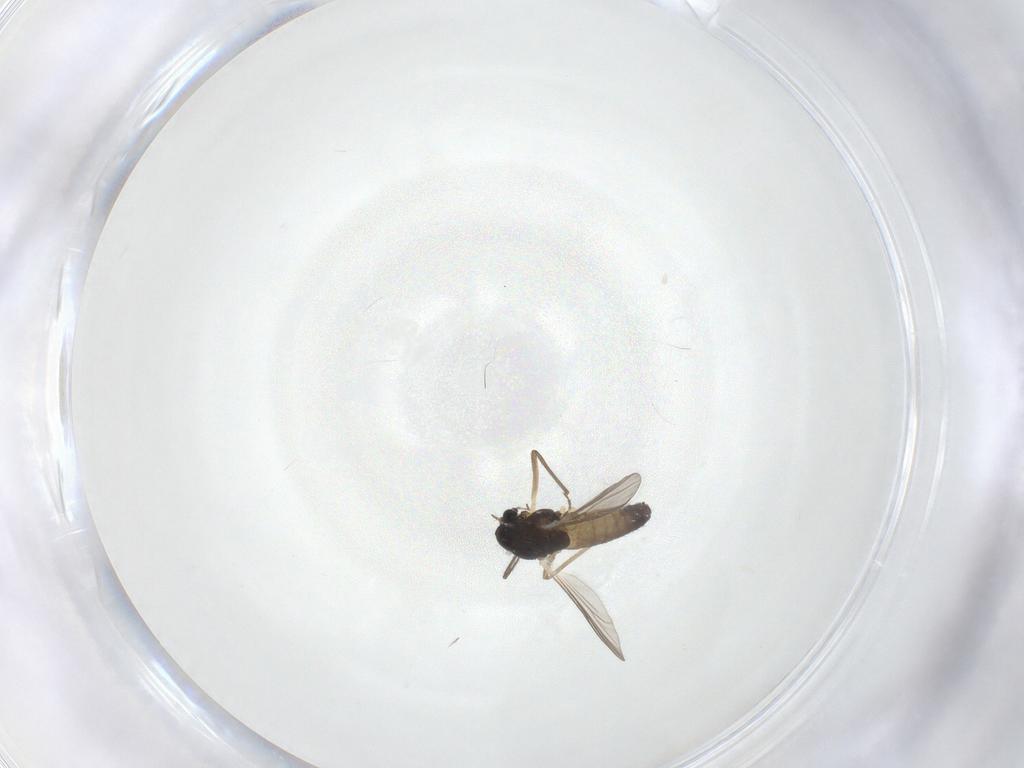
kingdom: Animalia
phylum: Arthropoda
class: Insecta
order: Diptera
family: Chironomidae
